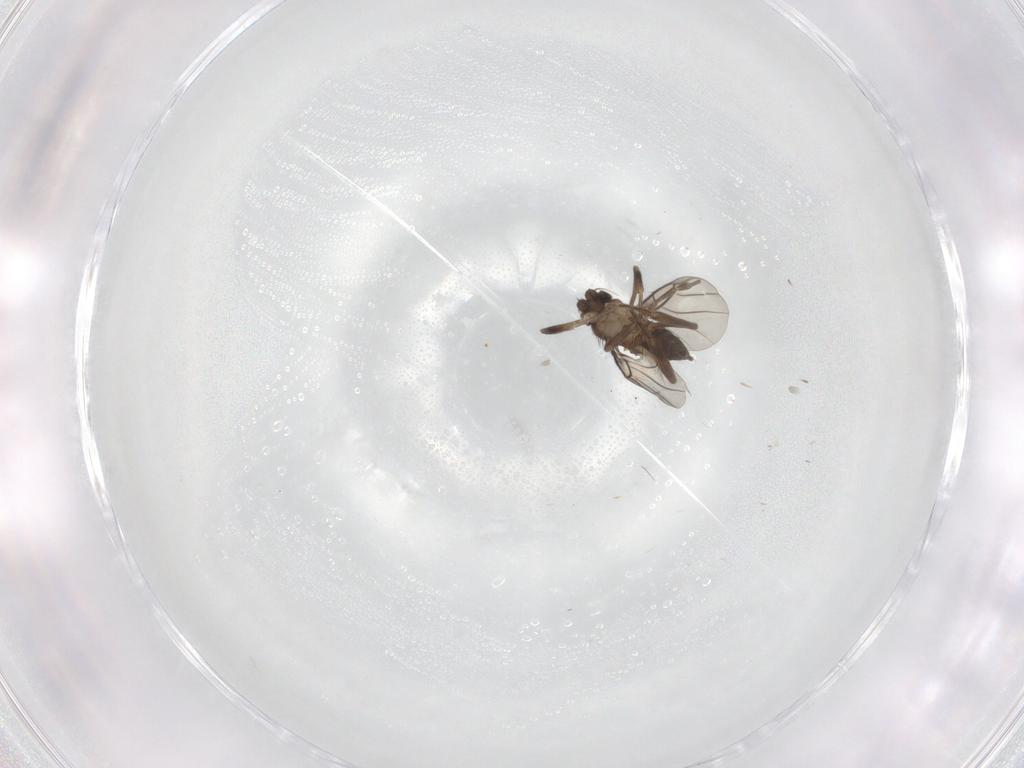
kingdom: Animalia
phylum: Arthropoda
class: Insecta
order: Diptera
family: Phoridae
